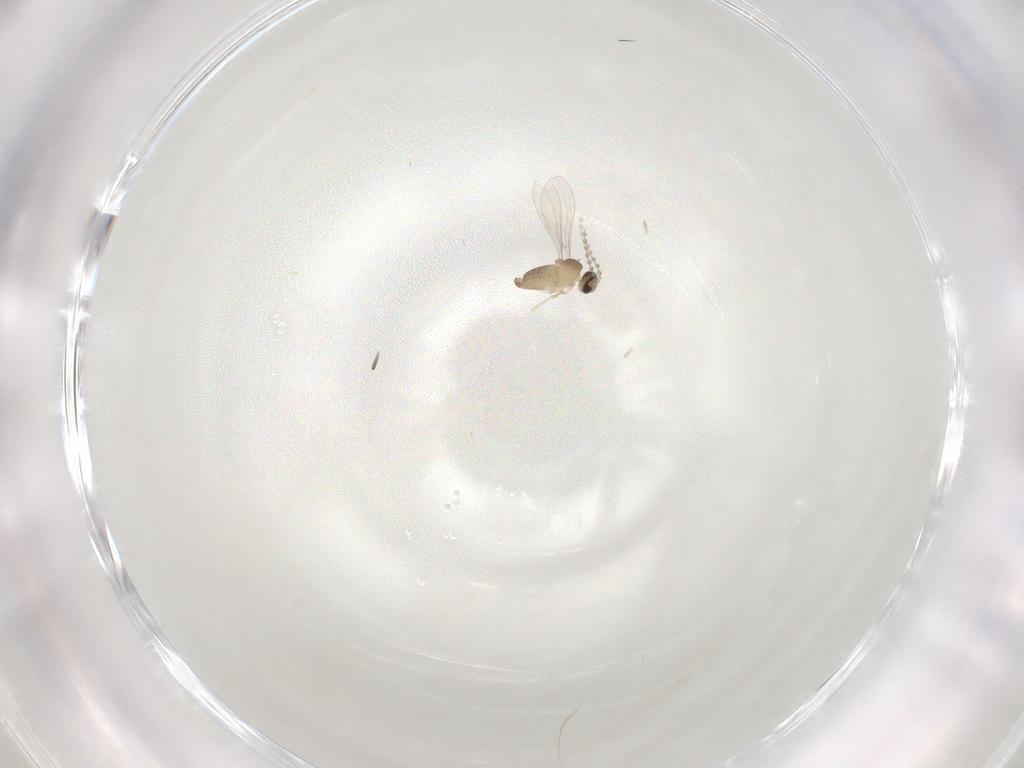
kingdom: Animalia
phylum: Arthropoda
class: Insecta
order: Diptera
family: Cecidomyiidae
